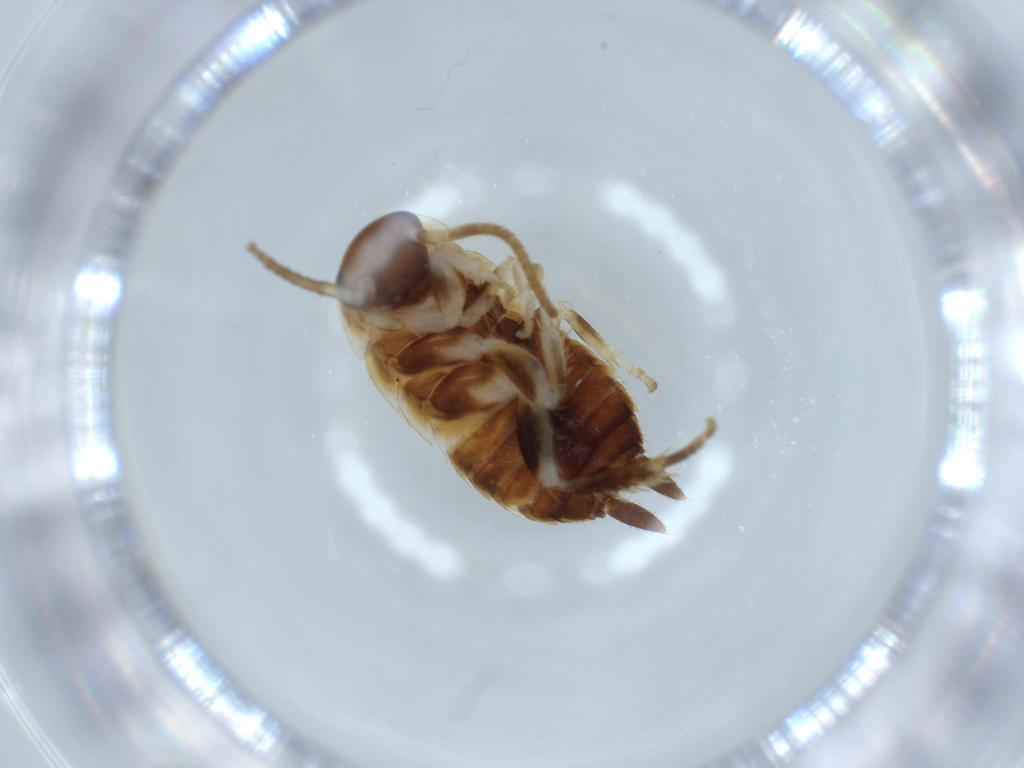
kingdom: Animalia
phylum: Arthropoda
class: Insecta
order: Blattodea
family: Ectobiidae
